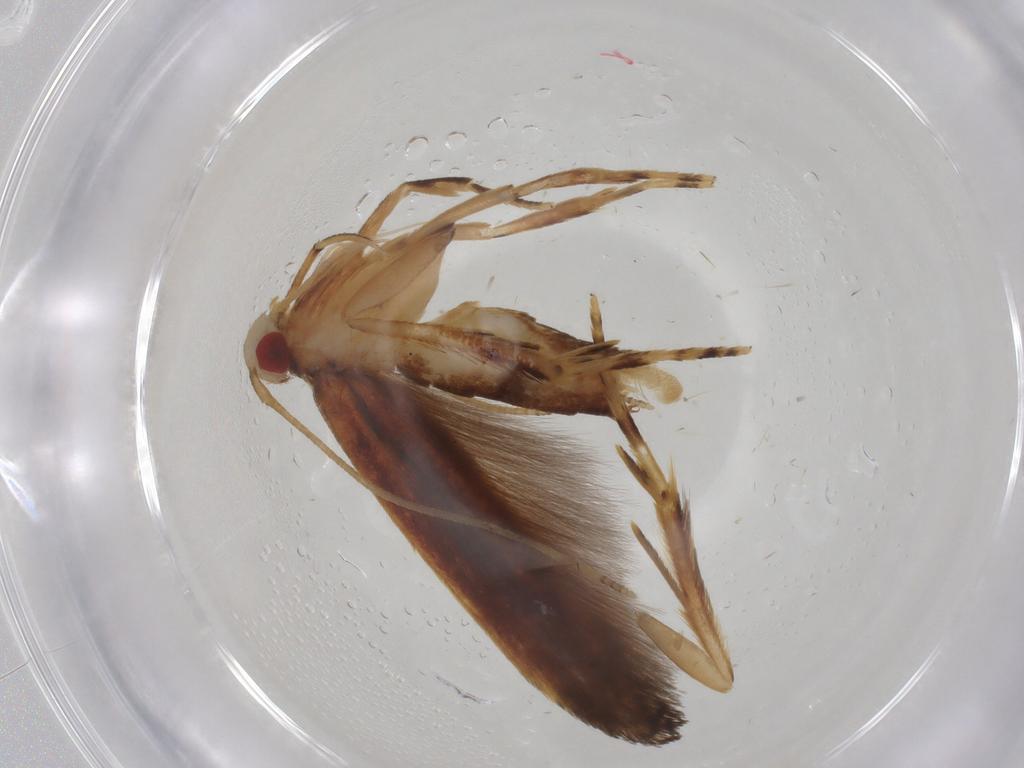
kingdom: Animalia
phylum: Arthropoda
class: Insecta
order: Lepidoptera
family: Cosmopterigidae
